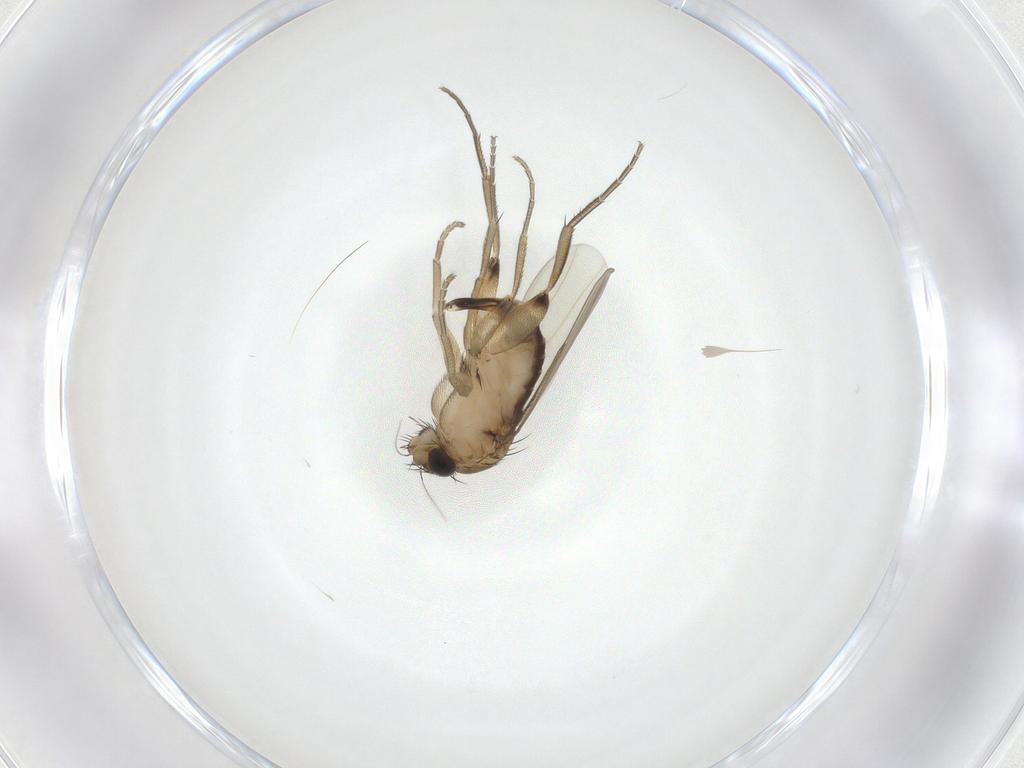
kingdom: Animalia
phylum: Arthropoda
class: Insecta
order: Diptera
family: Phoridae
